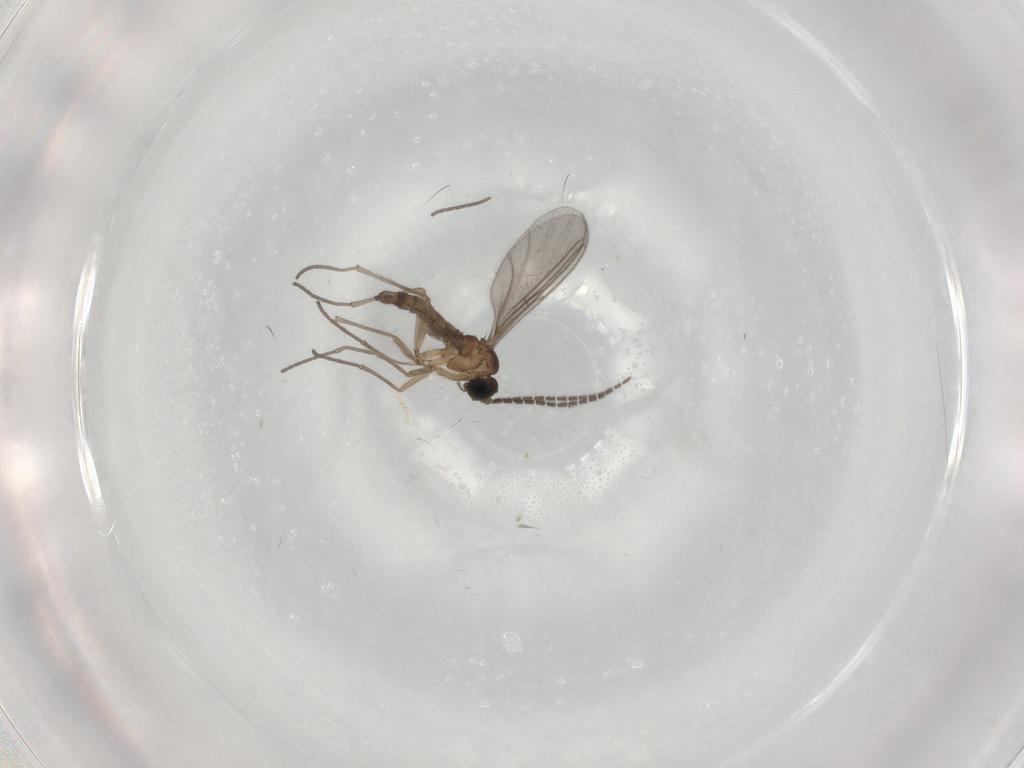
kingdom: Animalia
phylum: Arthropoda
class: Insecta
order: Diptera
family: Sciaridae
